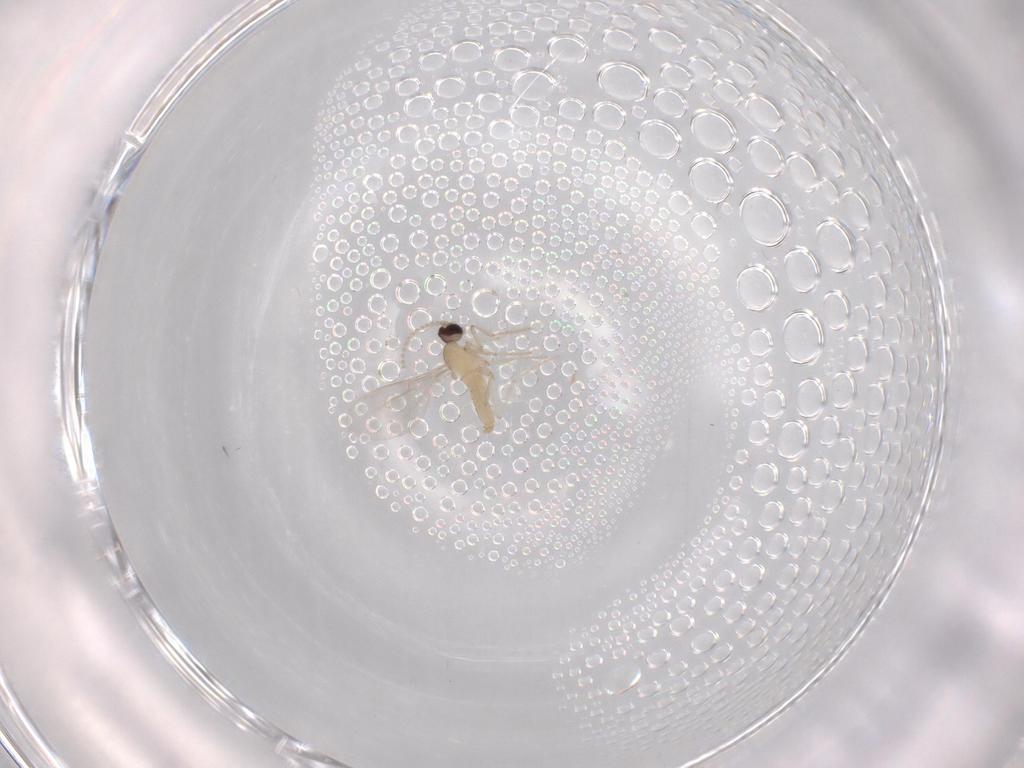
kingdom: Animalia
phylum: Arthropoda
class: Insecta
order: Diptera
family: Cecidomyiidae
